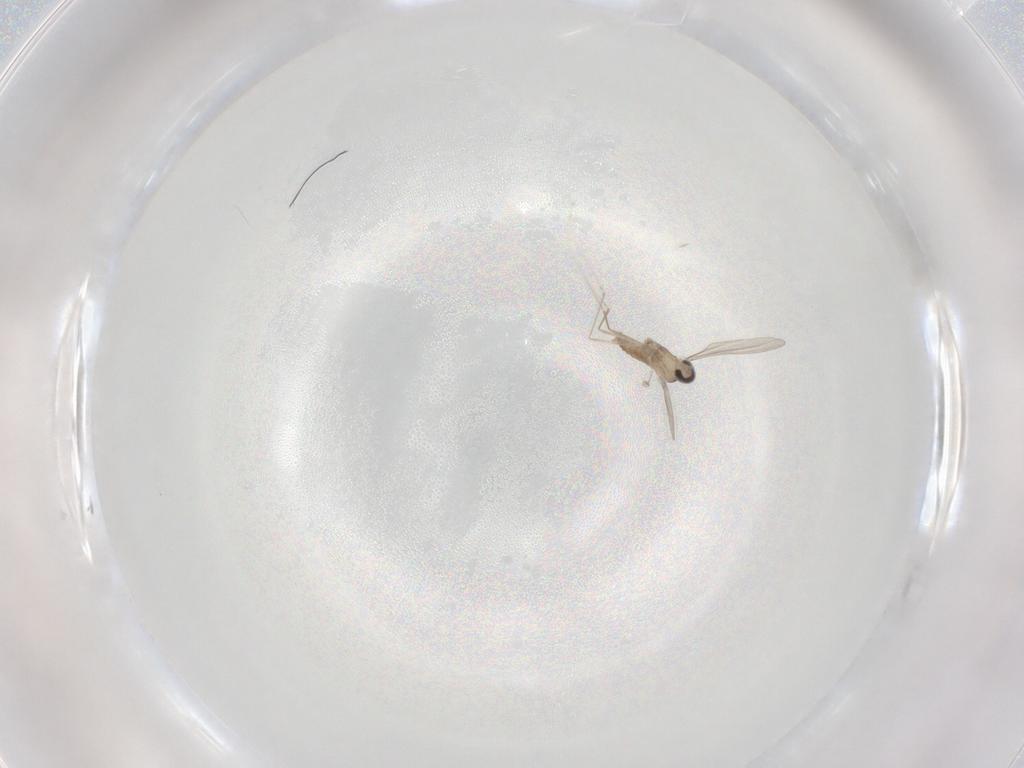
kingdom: Animalia
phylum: Arthropoda
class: Insecta
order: Diptera
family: Cecidomyiidae
